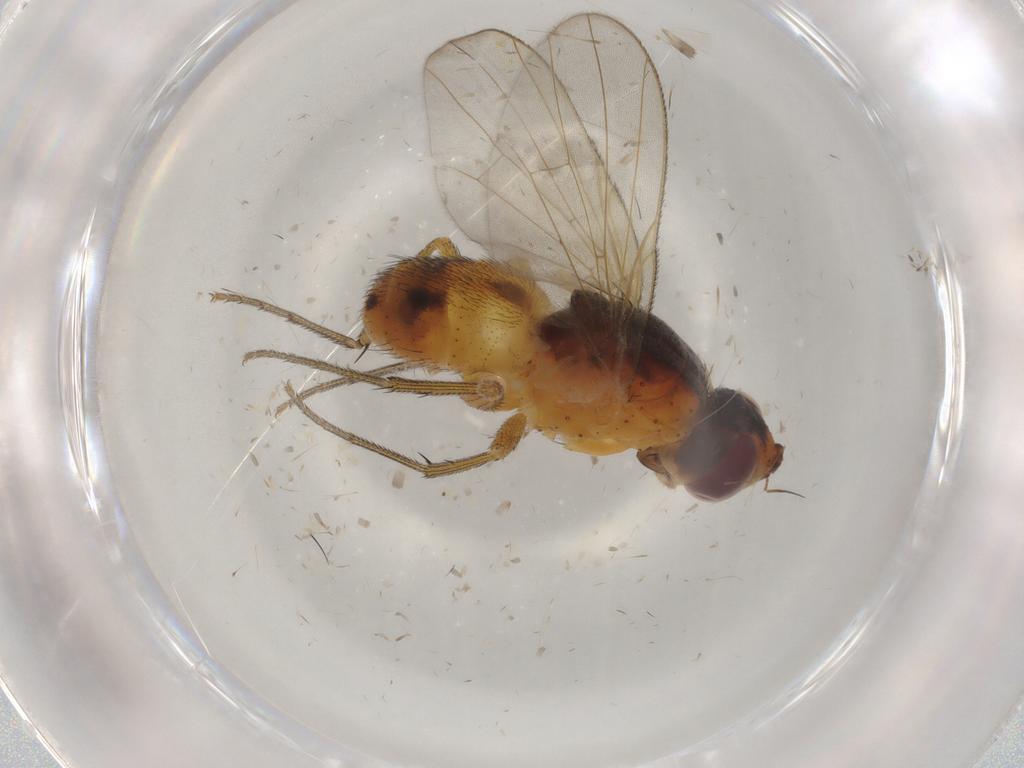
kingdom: Animalia
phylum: Arthropoda
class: Insecta
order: Diptera
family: Muscidae
